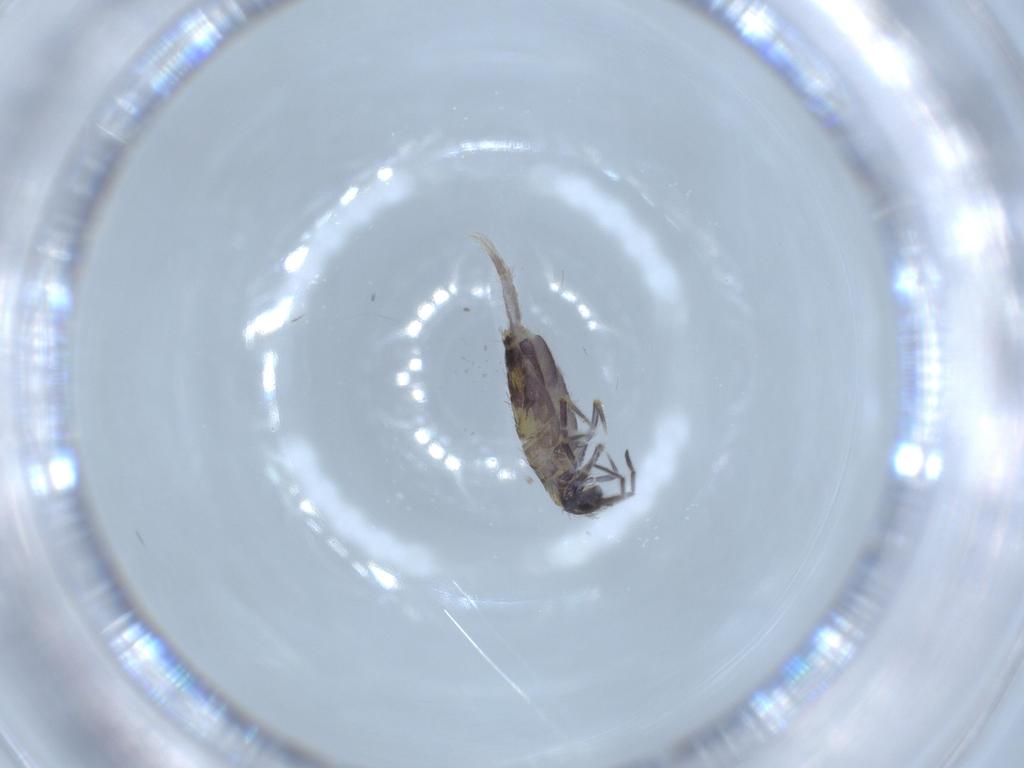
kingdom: Animalia
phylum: Arthropoda
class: Collembola
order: Entomobryomorpha
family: Entomobryidae
